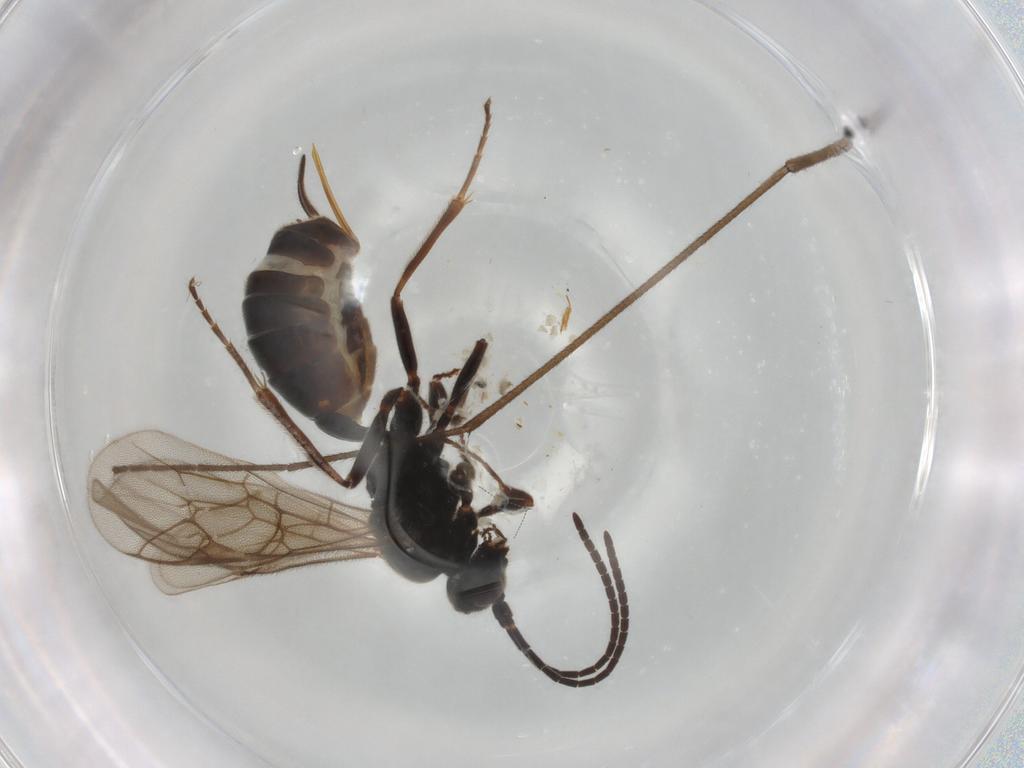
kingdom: Animalia
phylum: Arthropoda
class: Insecta
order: Hymenoptera
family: Ichneumonidae
